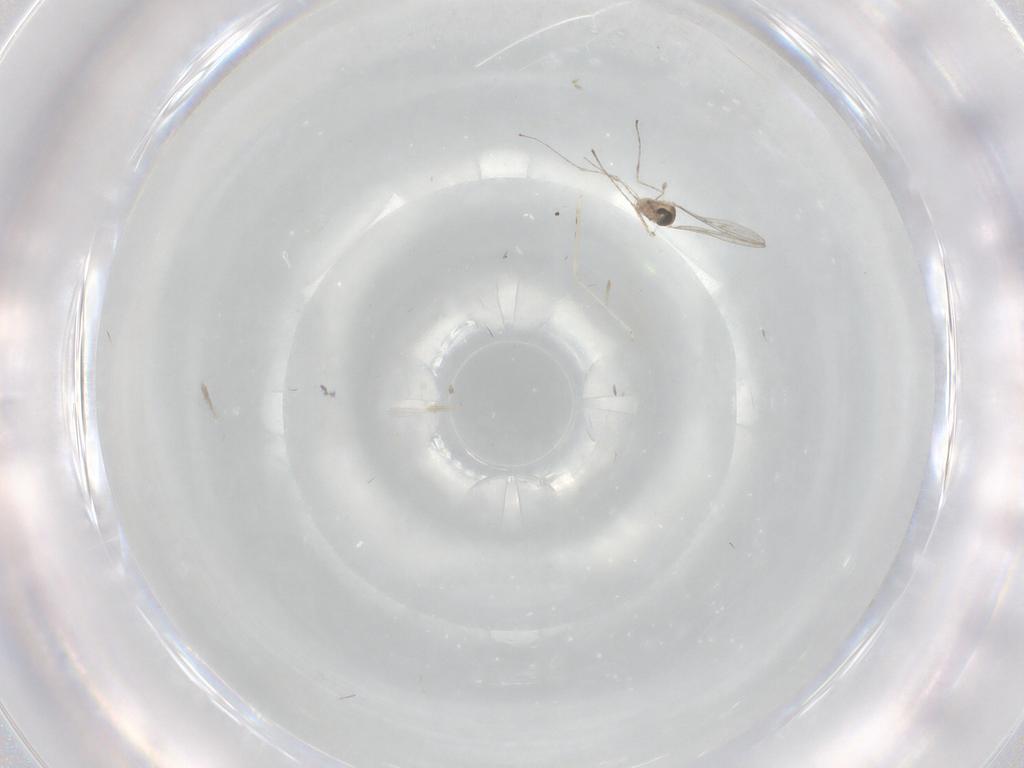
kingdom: Animalia
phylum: Arthropoda
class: Insecta
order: Diptera
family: Cecidomyiidae
